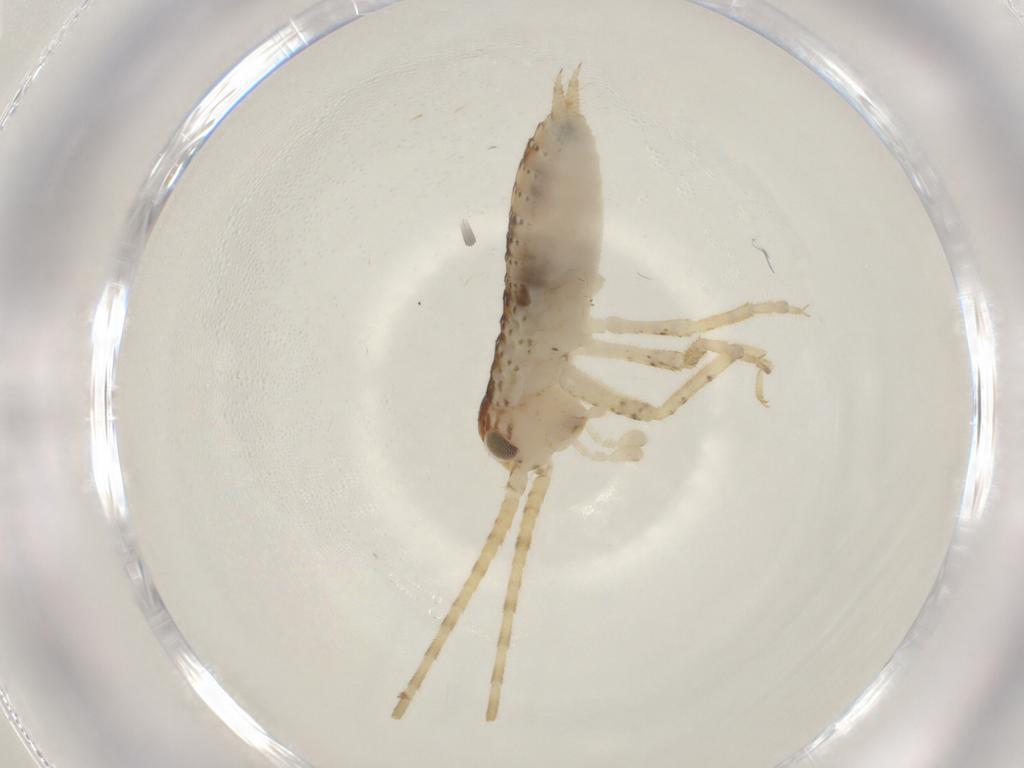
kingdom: Animalia
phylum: Arthropoda
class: Insecta
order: Orthoptera
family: Gryllidae
